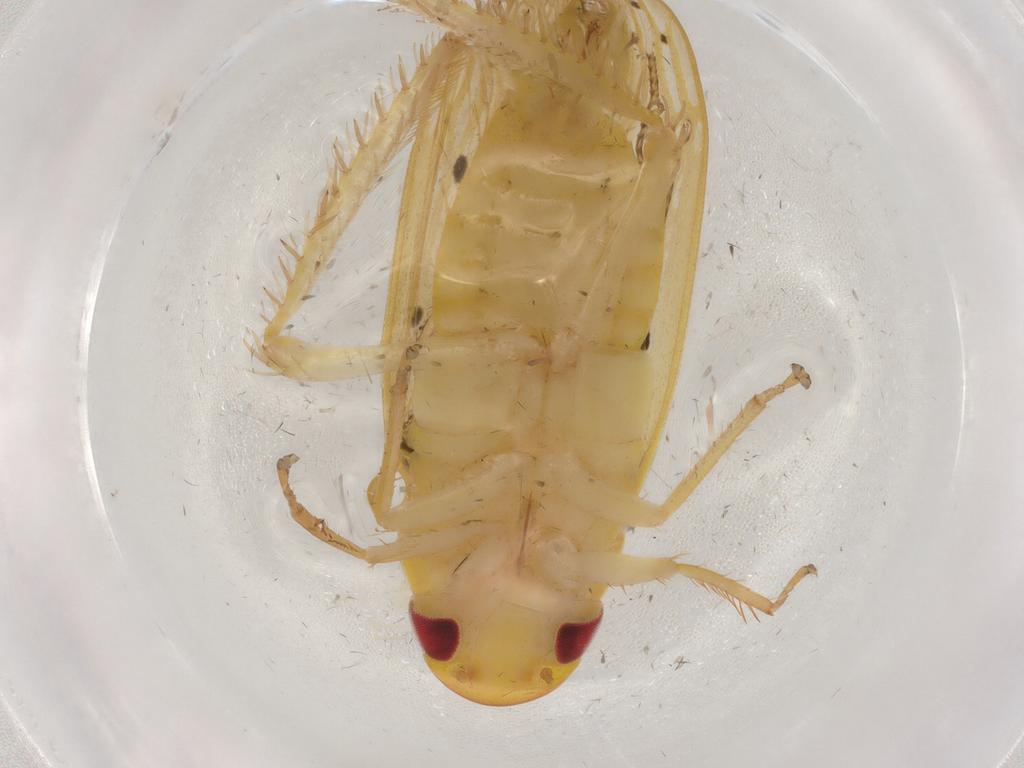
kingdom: Animalia
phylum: Arthropoda
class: Insecta
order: Hemiptera
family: Cicadellidae
